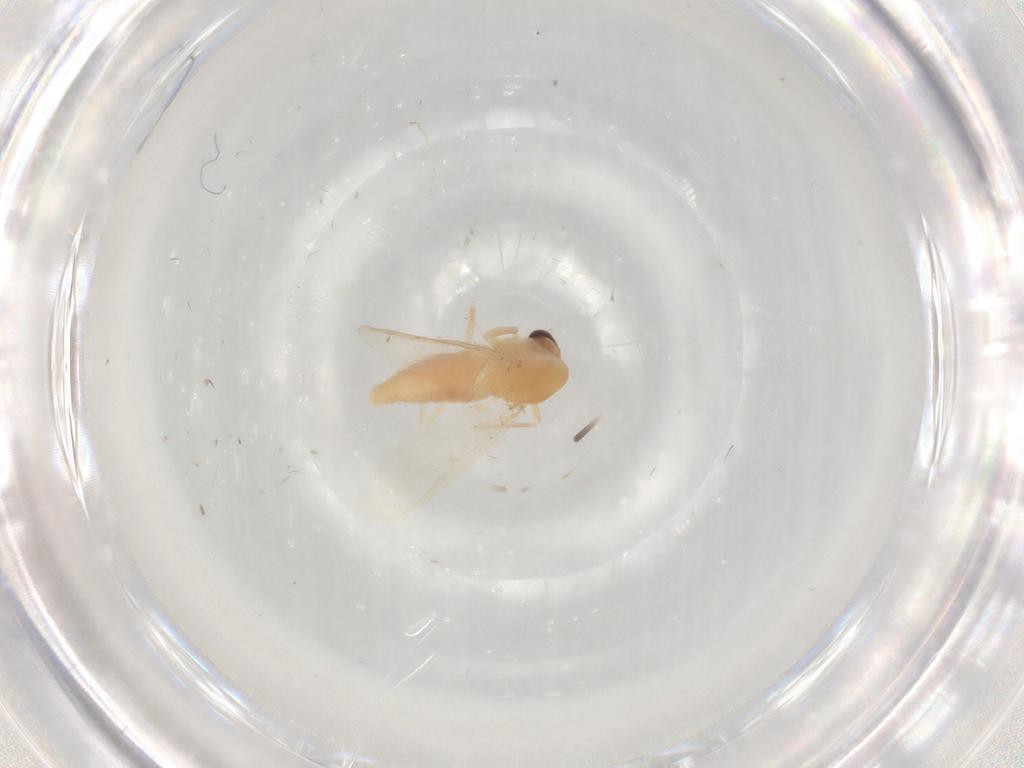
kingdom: Animalia
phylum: Arthropoda
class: Insecta
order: Diptera
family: Chironomidae
